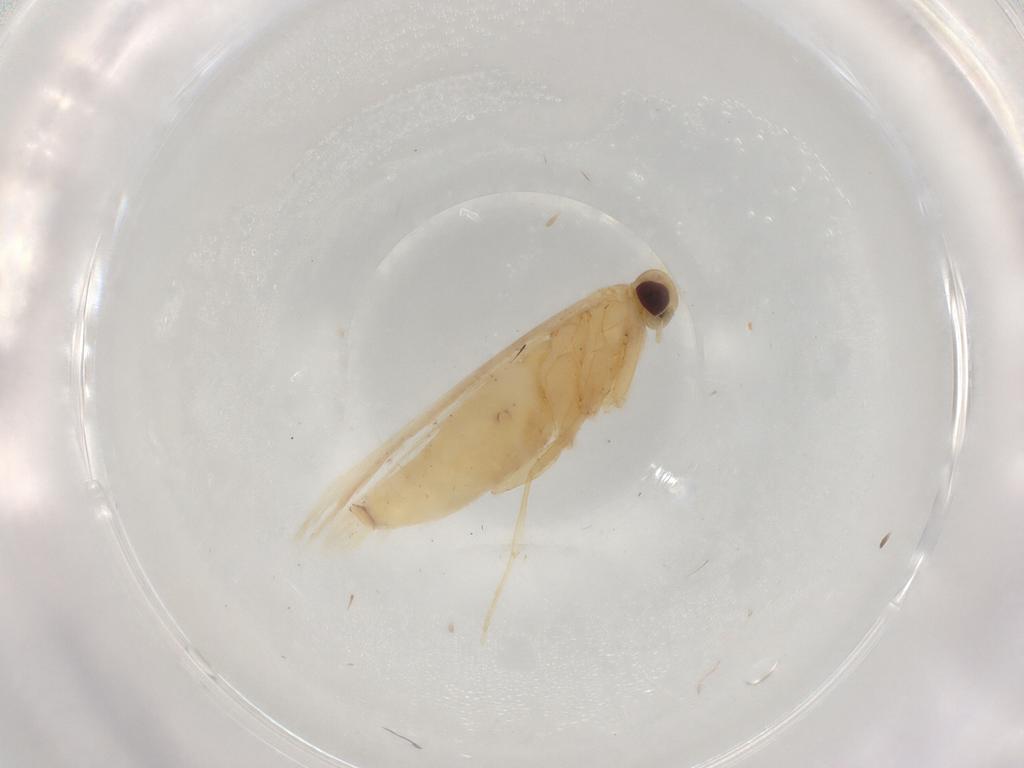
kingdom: Animalia
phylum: Arthropoda
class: Insecta
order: Lepidoptera
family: Gracillariidae
